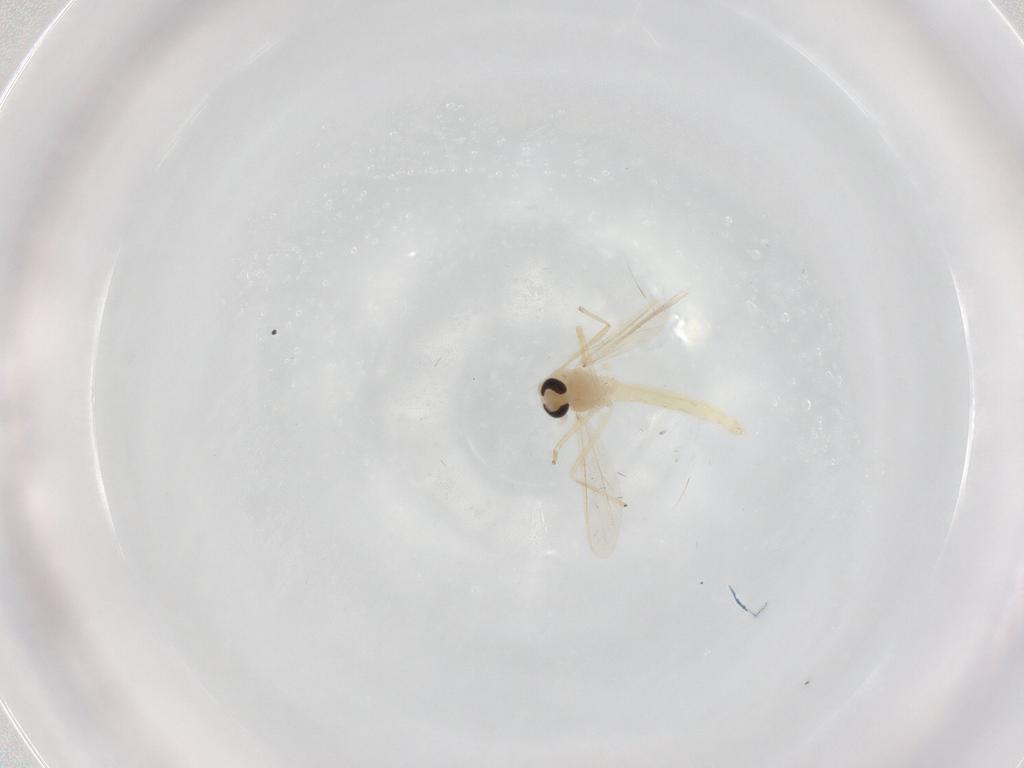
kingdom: Animalia
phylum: Arthropoda
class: Insecta
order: Diptera
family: Chironomidae
